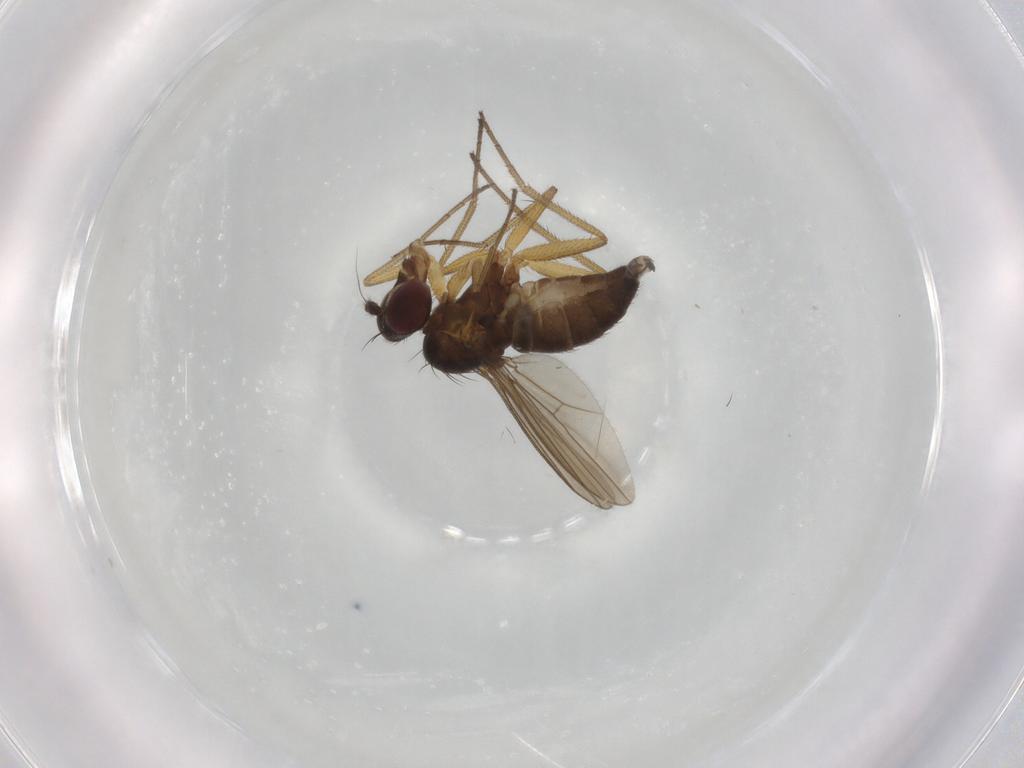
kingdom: Animalia
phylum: Arthropoda
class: Insecta
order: Diptera
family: Dolichopodidae
